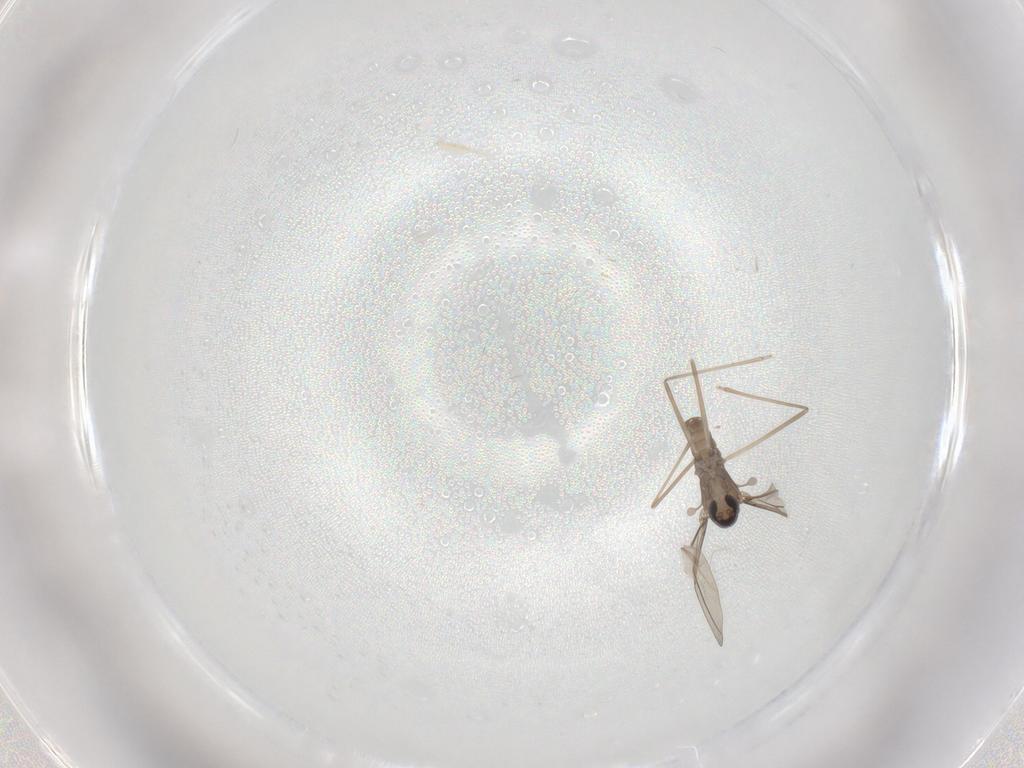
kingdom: Animalia
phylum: Arthropoda
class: Insecta
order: Diptera
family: Cecidomyiidae
